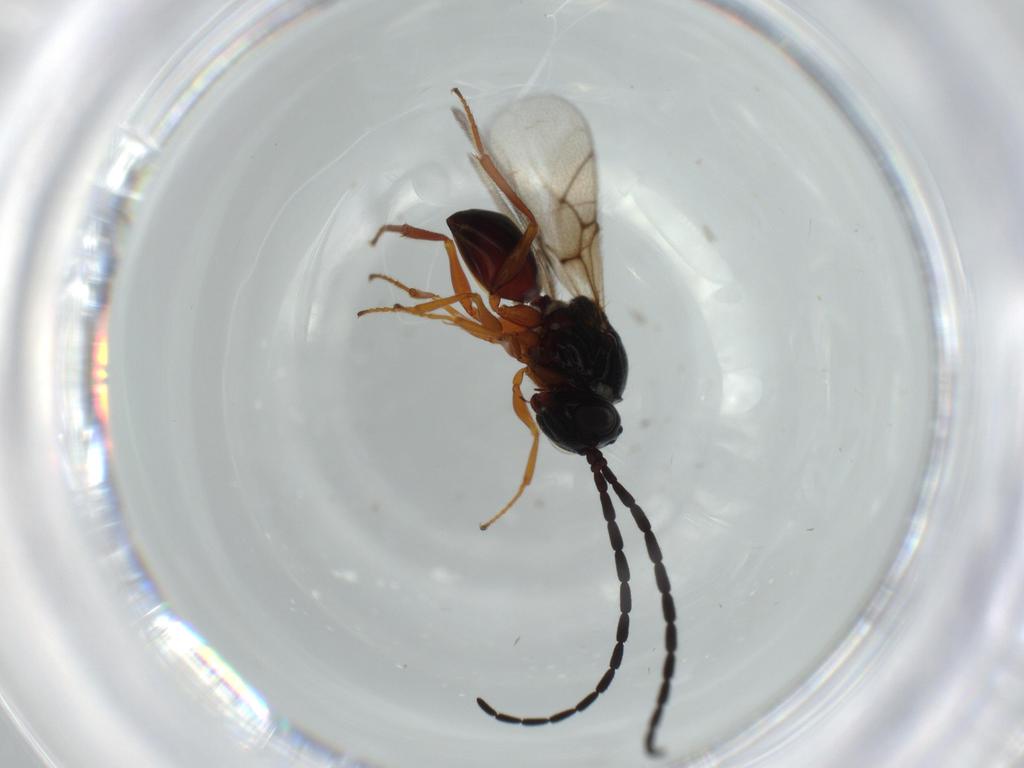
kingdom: Animalia
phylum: Arthropoda
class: Insecta
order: Hymenoptera
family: Figitidae
